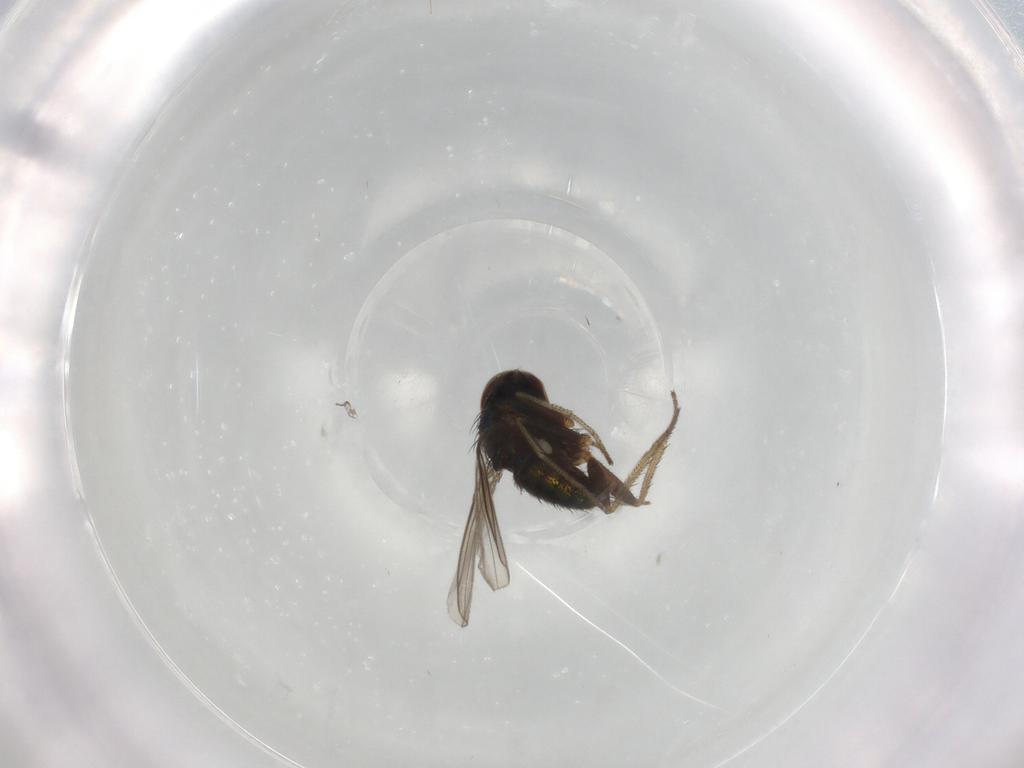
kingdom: Animalia
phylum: Arthropoda
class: Insecta
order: Diptera
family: Dolichopodidae
